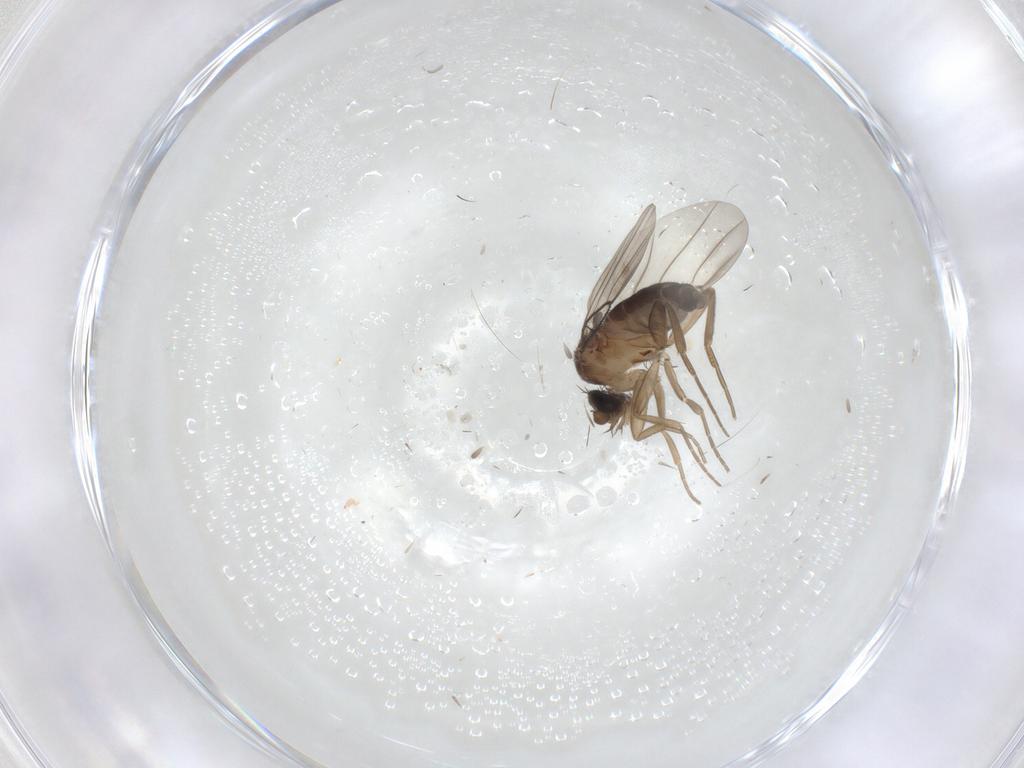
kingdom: Animalia
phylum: Arthropoda
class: Insecta
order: Diptera
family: Phoridae
